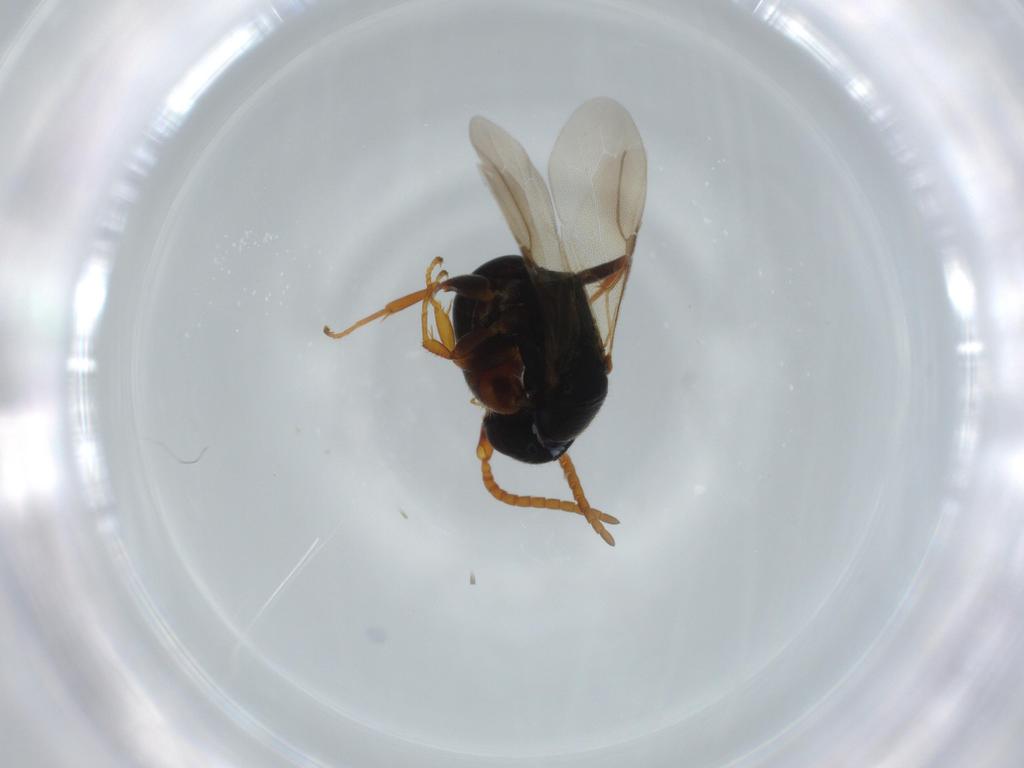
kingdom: Animalia
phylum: Arthropoda
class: Insecta
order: Hymenoptera
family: Bethylidae
